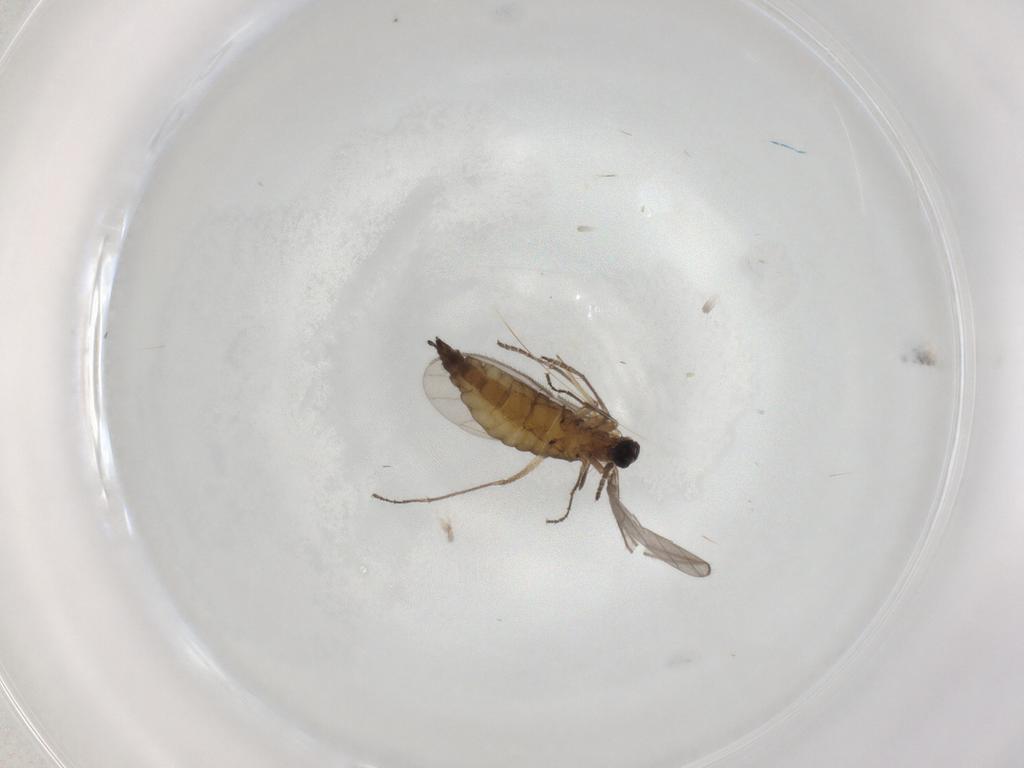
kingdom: Animalia
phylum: Arthropoda
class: Insecta
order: Diptera
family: Sciaridae
